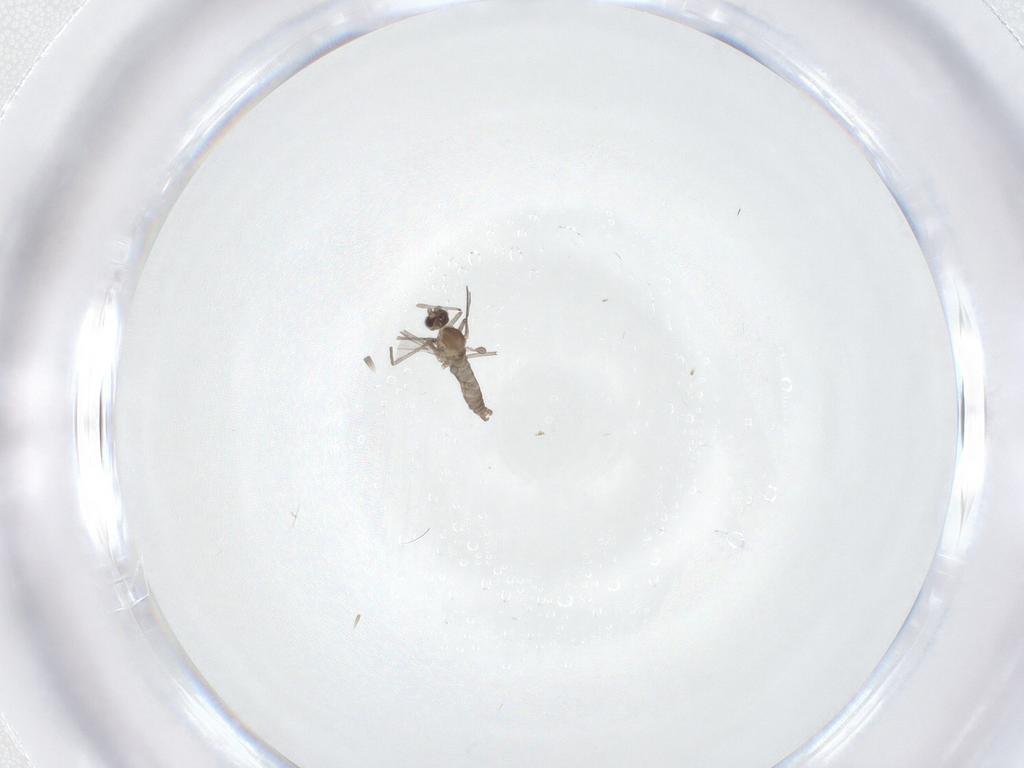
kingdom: Animalia
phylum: Arthropoda
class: Insecta
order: Diptera
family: Cecidomyiidae
